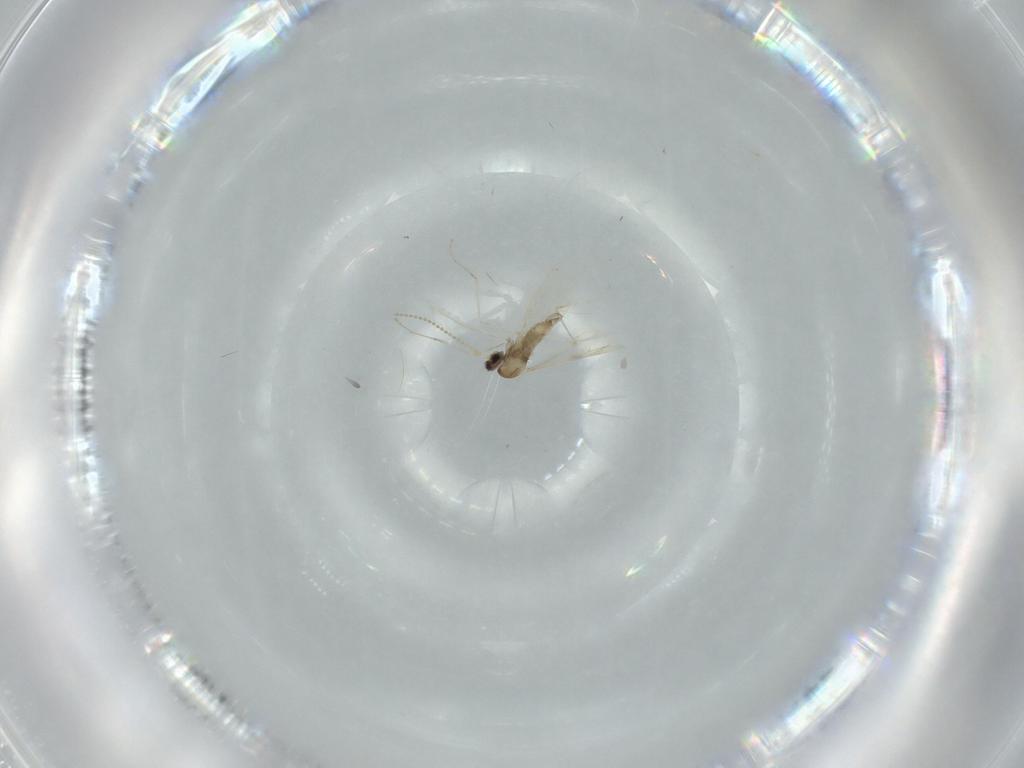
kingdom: Animalia
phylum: Arthropoda
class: Insecta
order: Diptera
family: Cecidomyiidae
